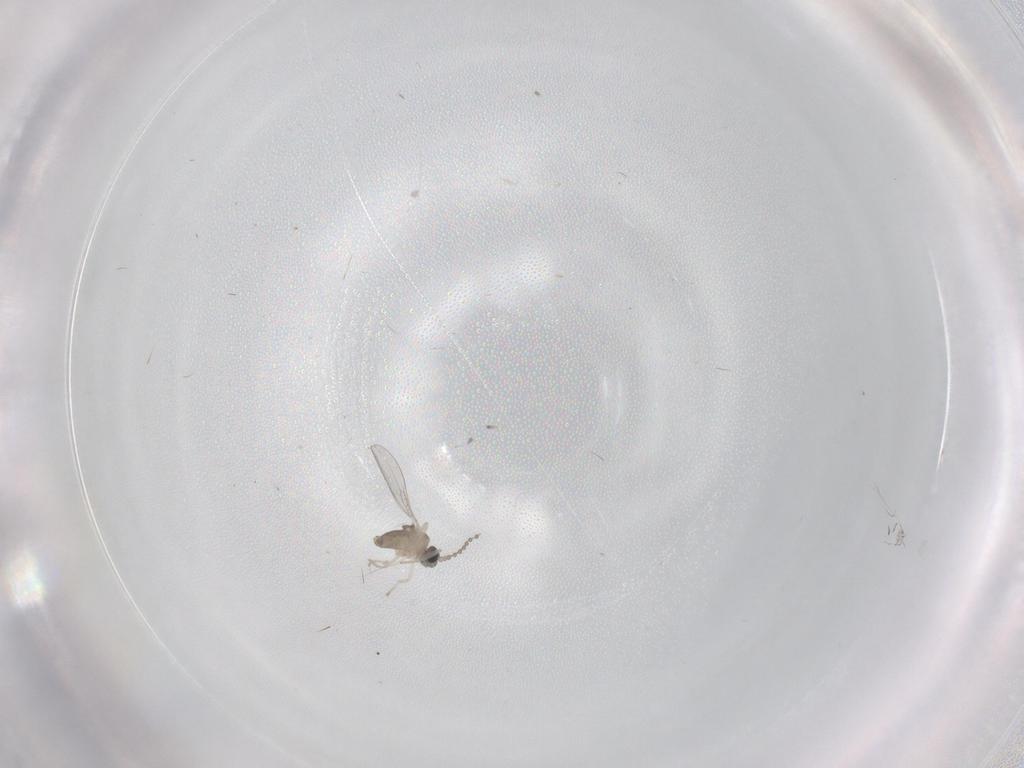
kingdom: Animalia
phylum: Arthropoda
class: Insecta
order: Diptera
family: Cecidomyiidae
